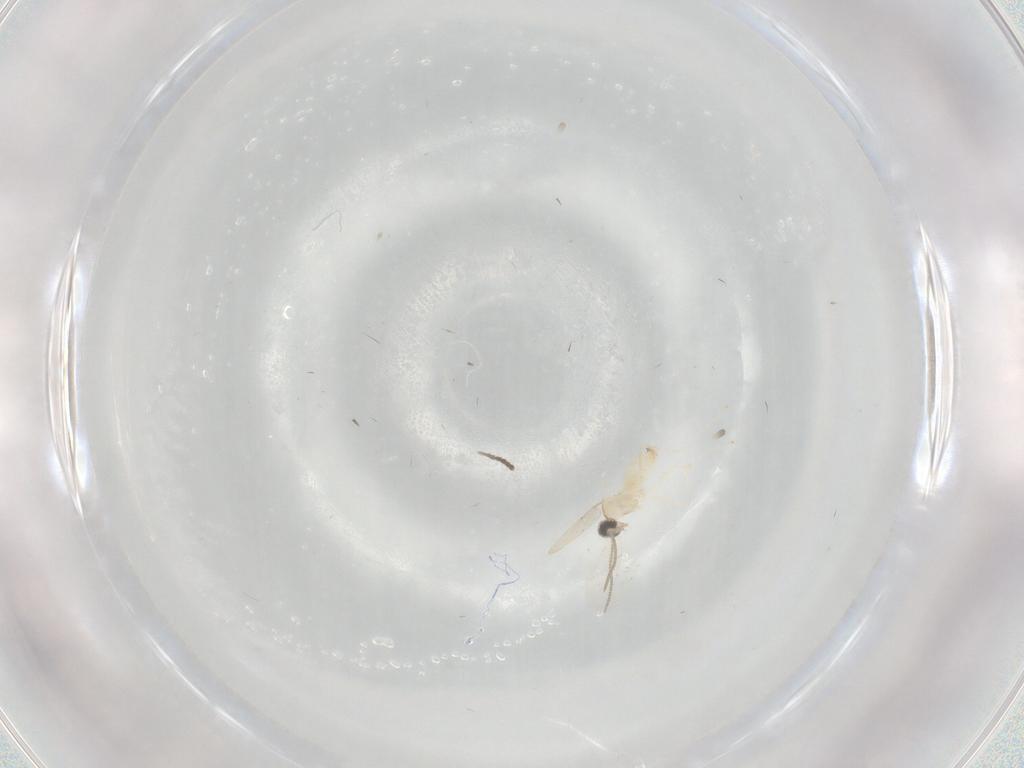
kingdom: Animalia
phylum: Arthropoda
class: Insecta
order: Diptera
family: Cecidomyiidae
